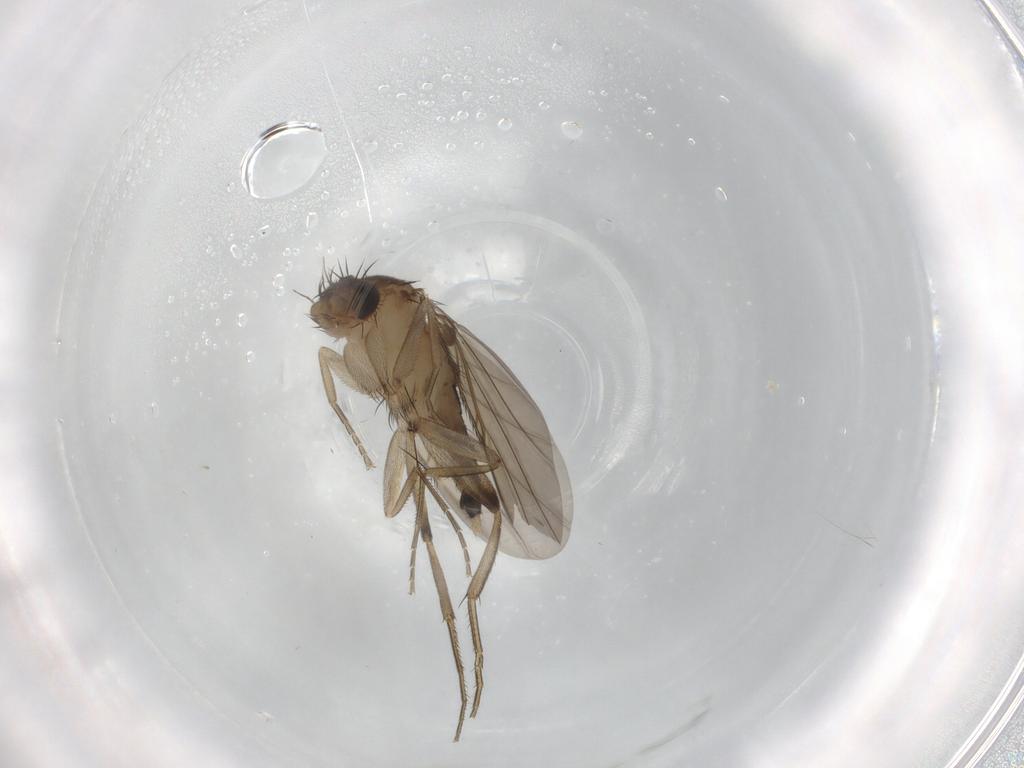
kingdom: Animalia
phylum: Arthropoda
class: Insecta
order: Diptera
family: Phoridae
